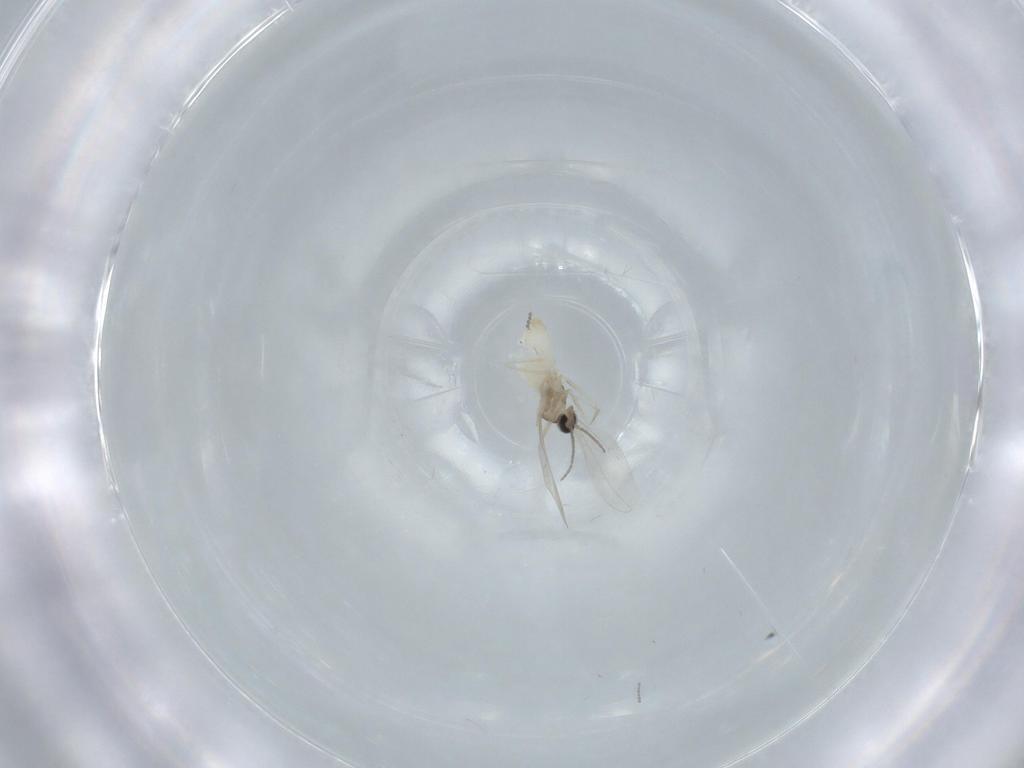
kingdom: Animalia
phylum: Arthropoda
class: Insecta
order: Diptera
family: Cecidomyiidae
